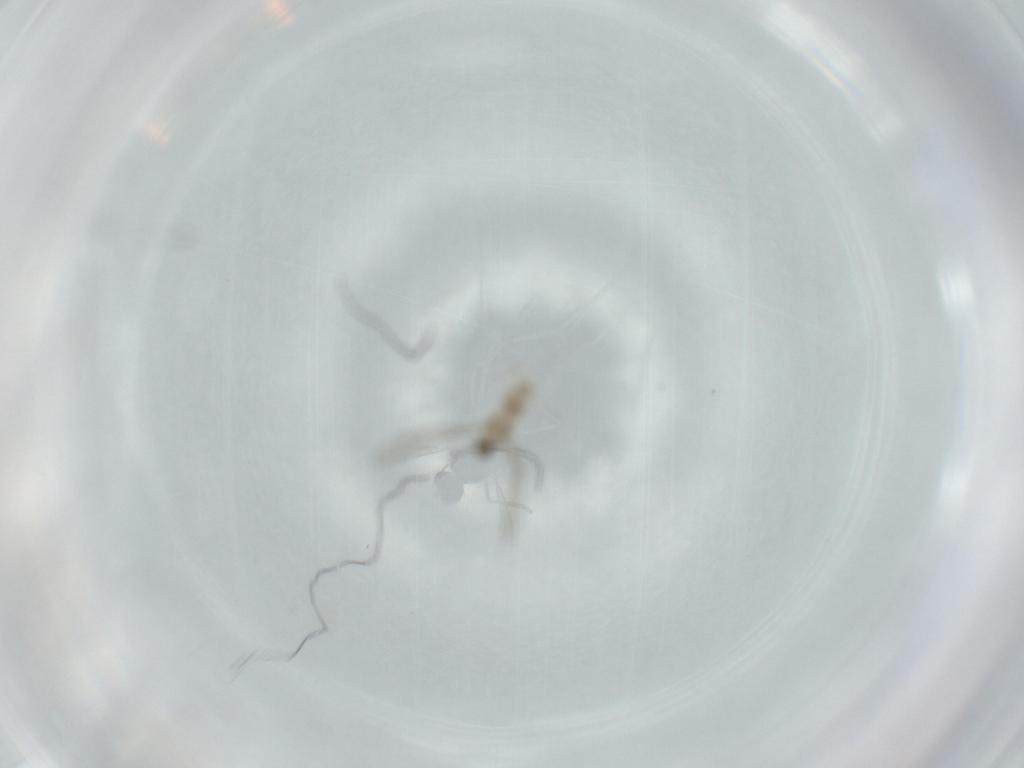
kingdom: Animalia
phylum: Arthropoda
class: Insecta
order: Diptera
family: Cecidomyiidae
